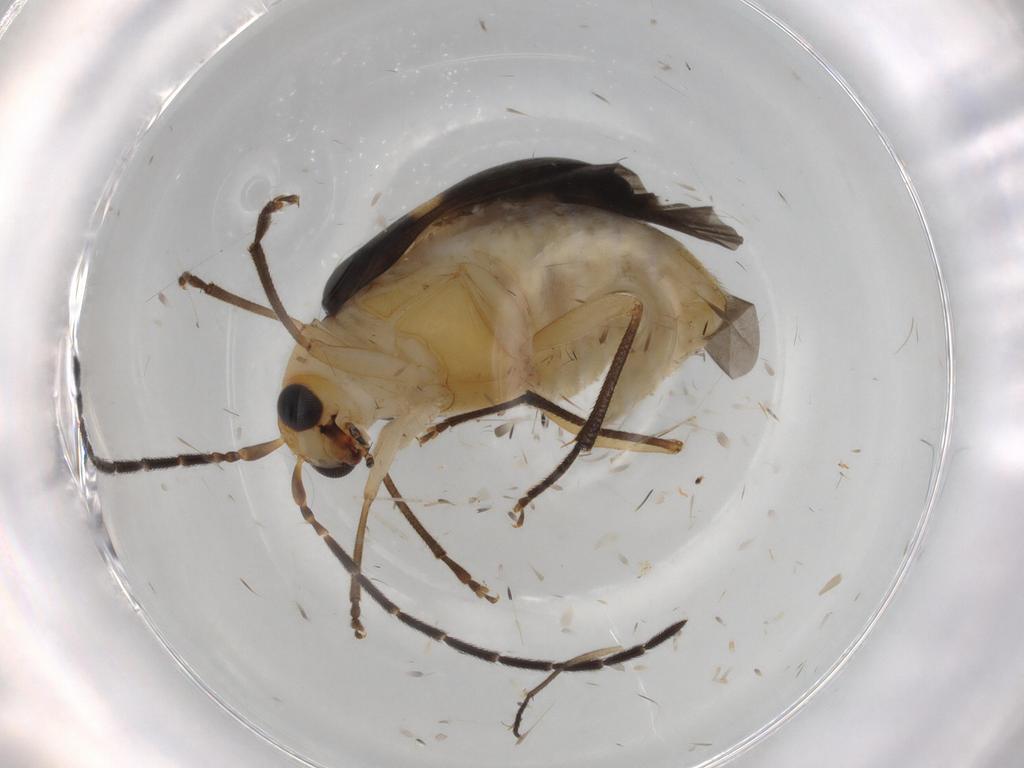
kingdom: Animalia
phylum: Arthropoda
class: Insecta
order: Coleoptera
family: Chrysomelidae
